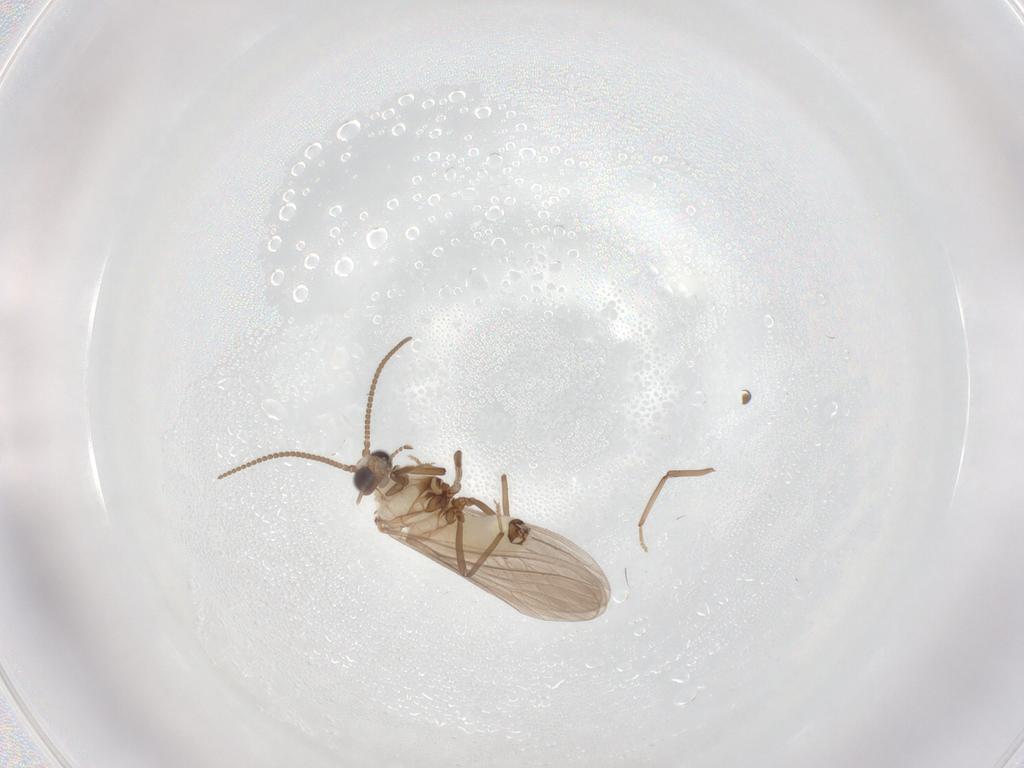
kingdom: Animalia
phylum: Arthropoda
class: Insecta
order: Neuroptera
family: Coniopterygidae
